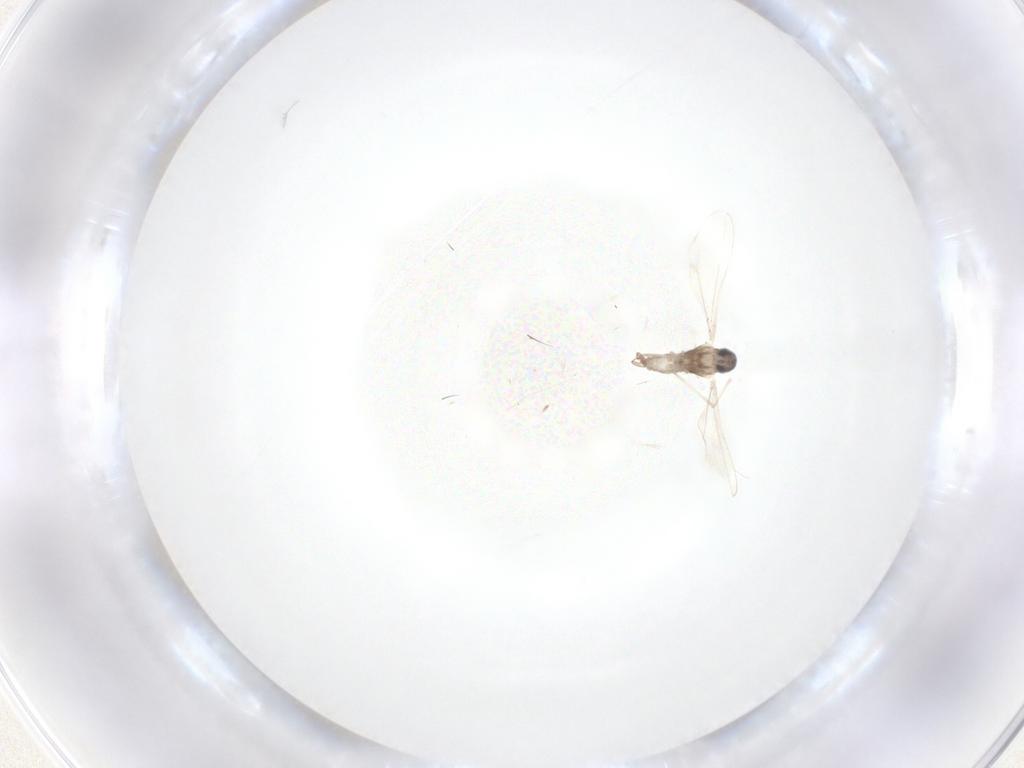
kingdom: Animalia
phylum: Arthropoda
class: Insecta
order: Diptera
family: Cecidomyiidae
